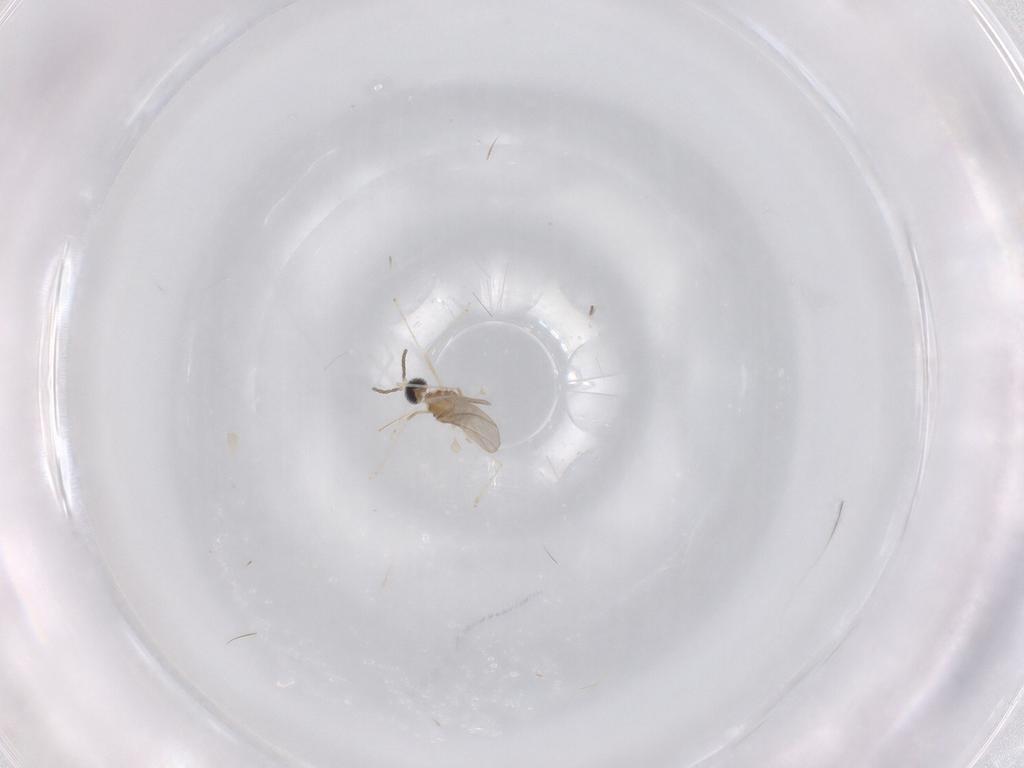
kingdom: Animalia
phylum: Arthropoda
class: Insecta
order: Diptera
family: Cecidomyiidae
